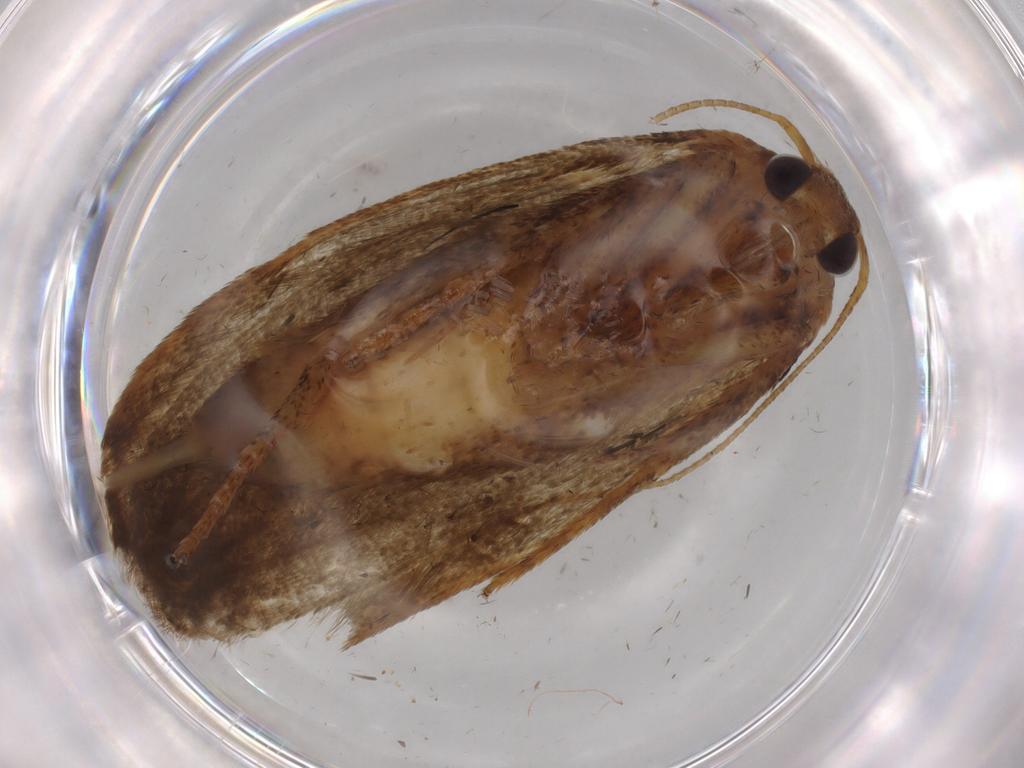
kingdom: Animalia
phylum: Arthropoda
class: Insecta
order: Lepidoptera
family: Blastobasidae
